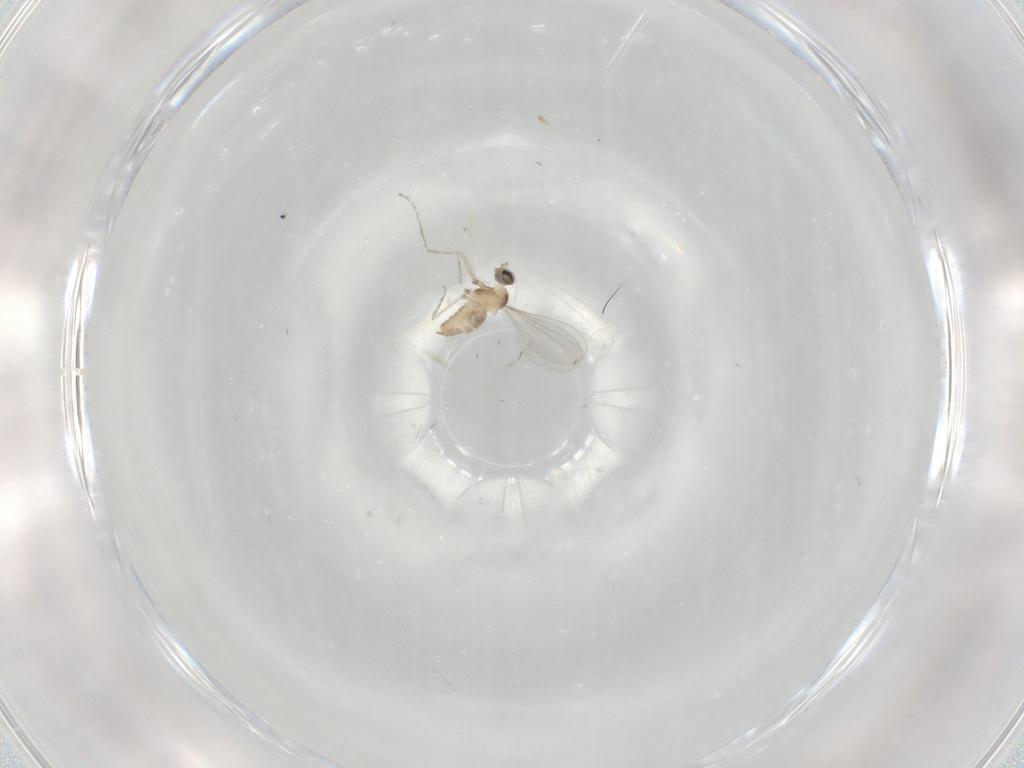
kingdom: Animalia
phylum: Arthropoda
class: Insecta
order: Diptera
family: Cecidomyiidae
